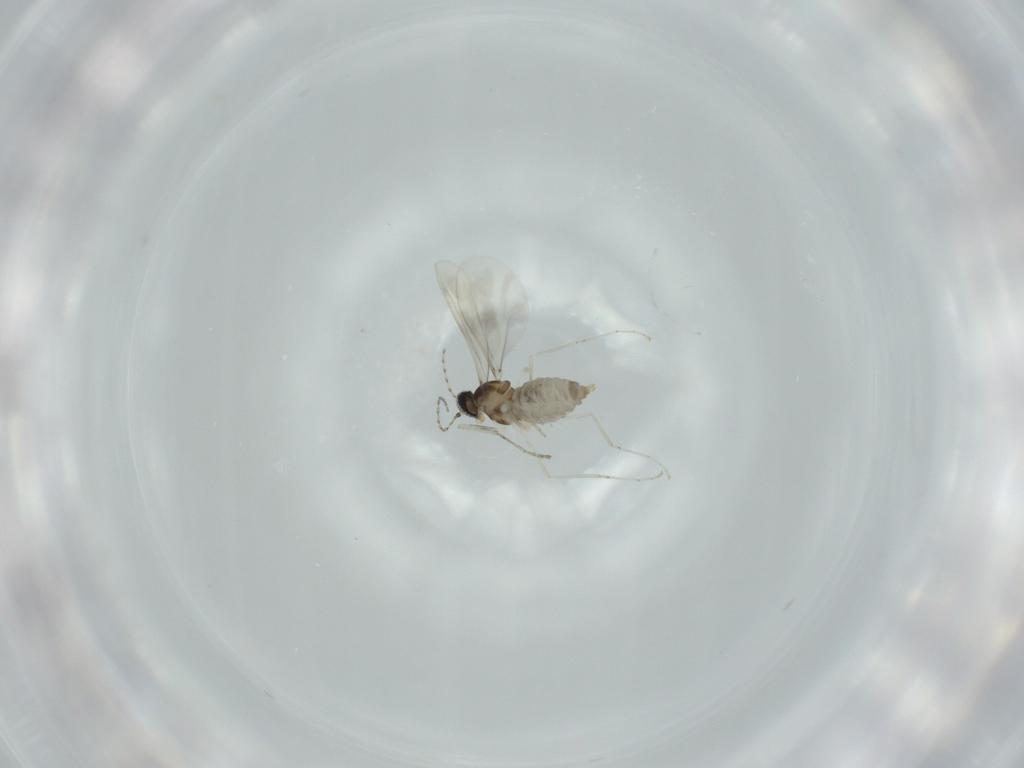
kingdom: Animalia
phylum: Arthropoda
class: Insecta
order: Diptera
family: Cecidomyiidae
